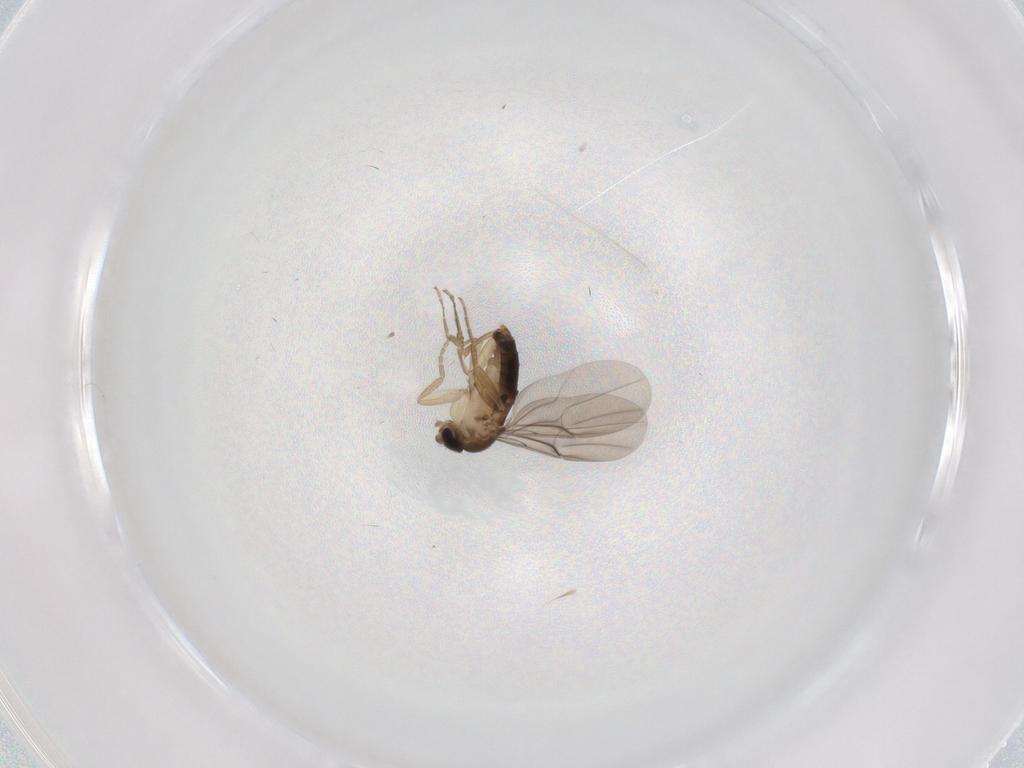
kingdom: Animalia
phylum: Arthropoda
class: Insecta
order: Diptera
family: Phoridae
